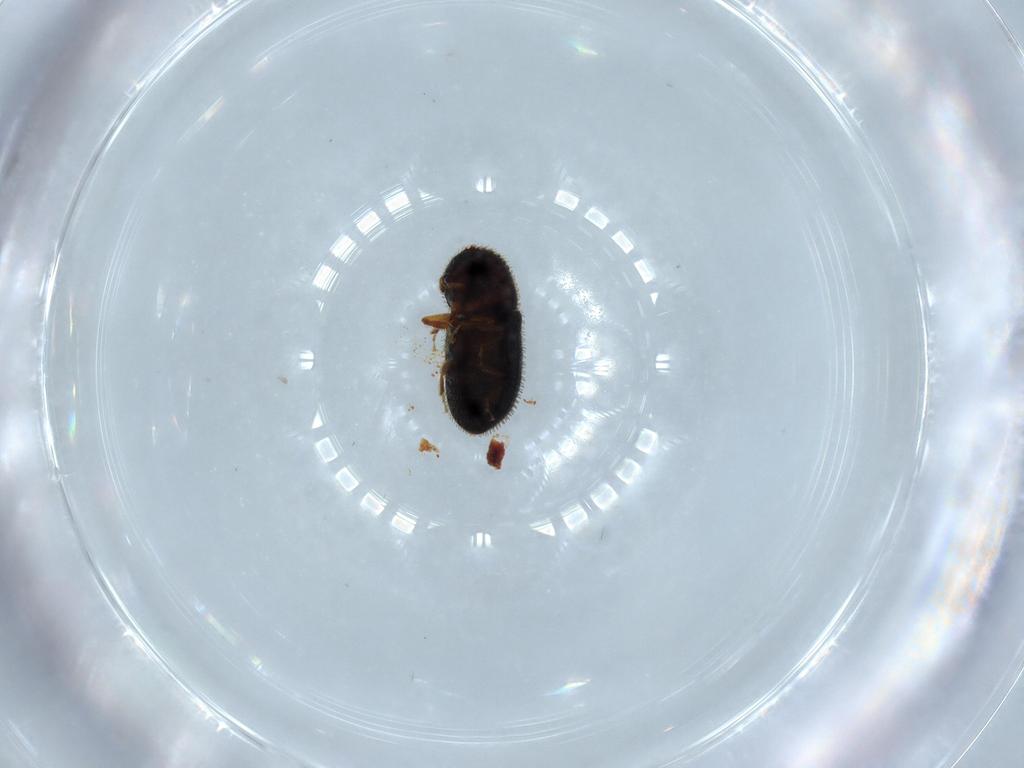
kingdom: Animalia
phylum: Arthropoda
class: Insecta
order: Coleoptera
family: Curculionidae
